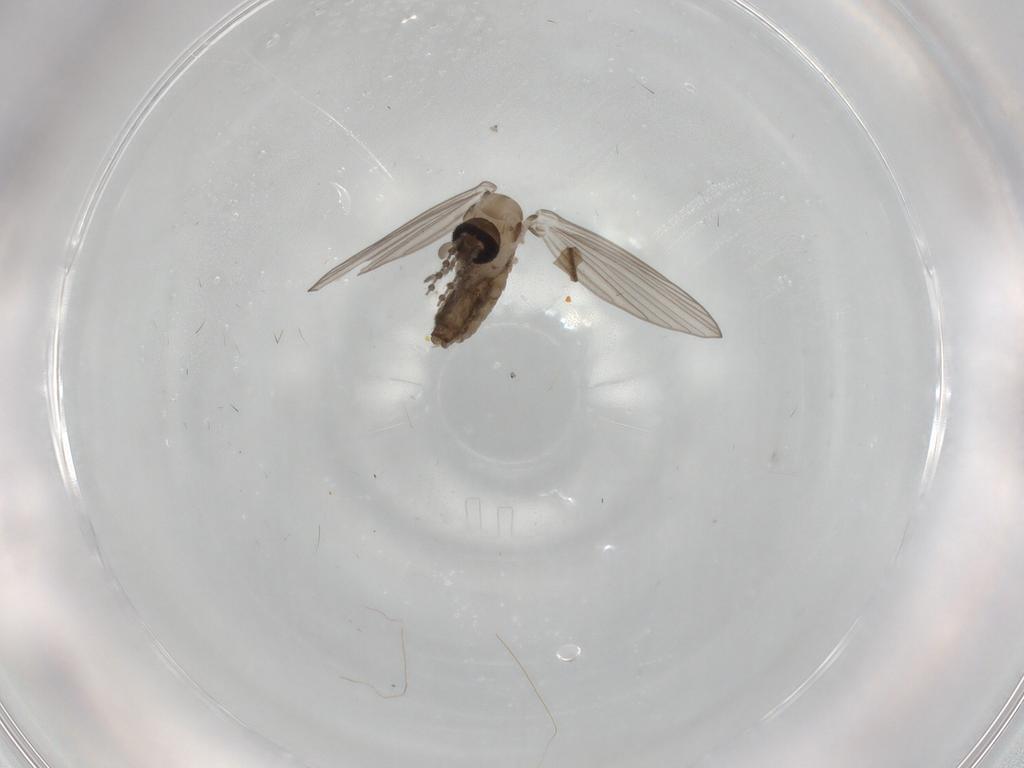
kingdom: Animalia
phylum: Arthropoda
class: Insecta
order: Diptera
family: Psychodidae
